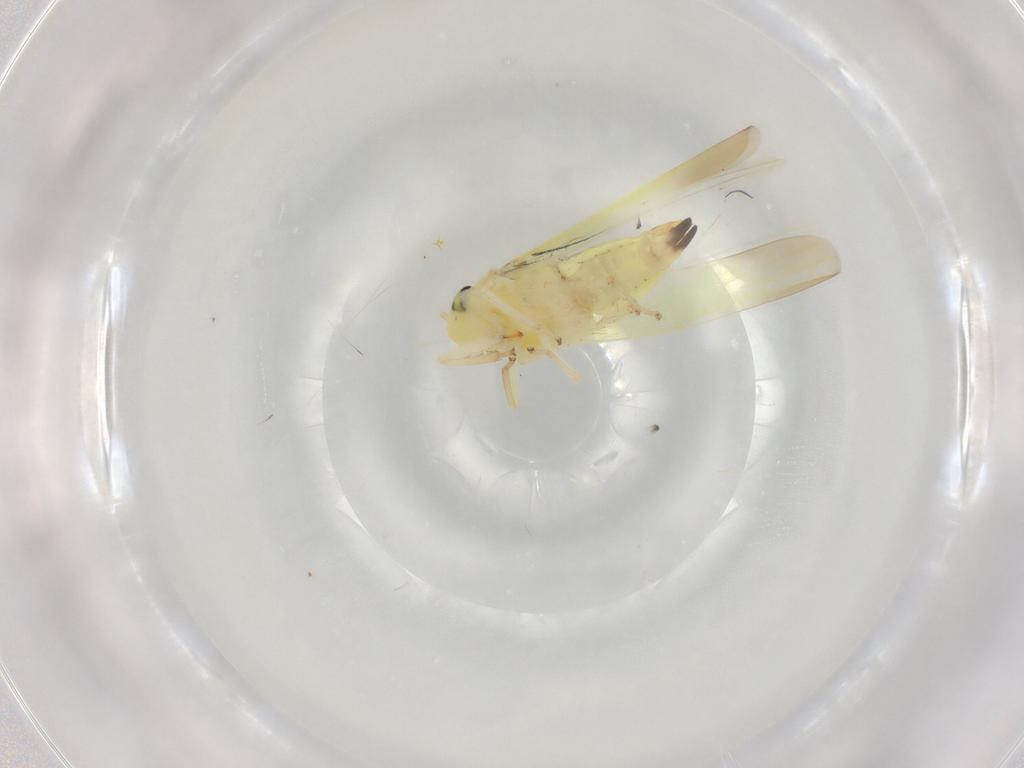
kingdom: Animalia
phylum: Arthropoda
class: Insecta
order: Hemiptera
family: Cicadellidae
